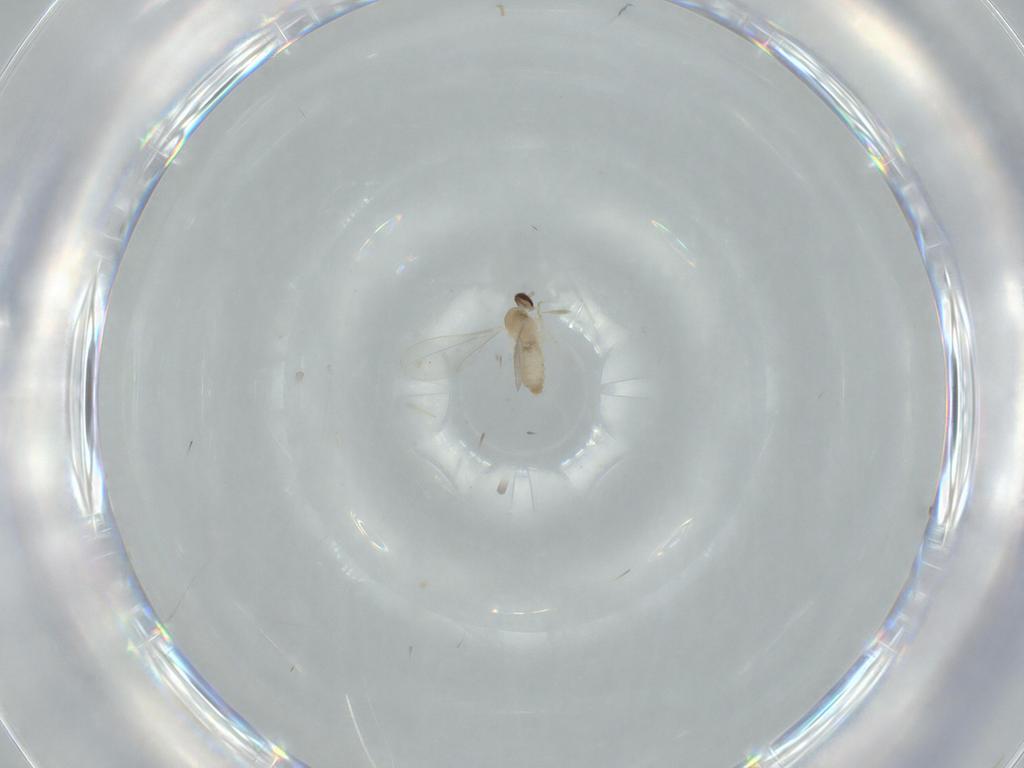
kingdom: Animalia
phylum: Arthropoda
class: Insecta
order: Diptera
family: Cecidomyiidae
